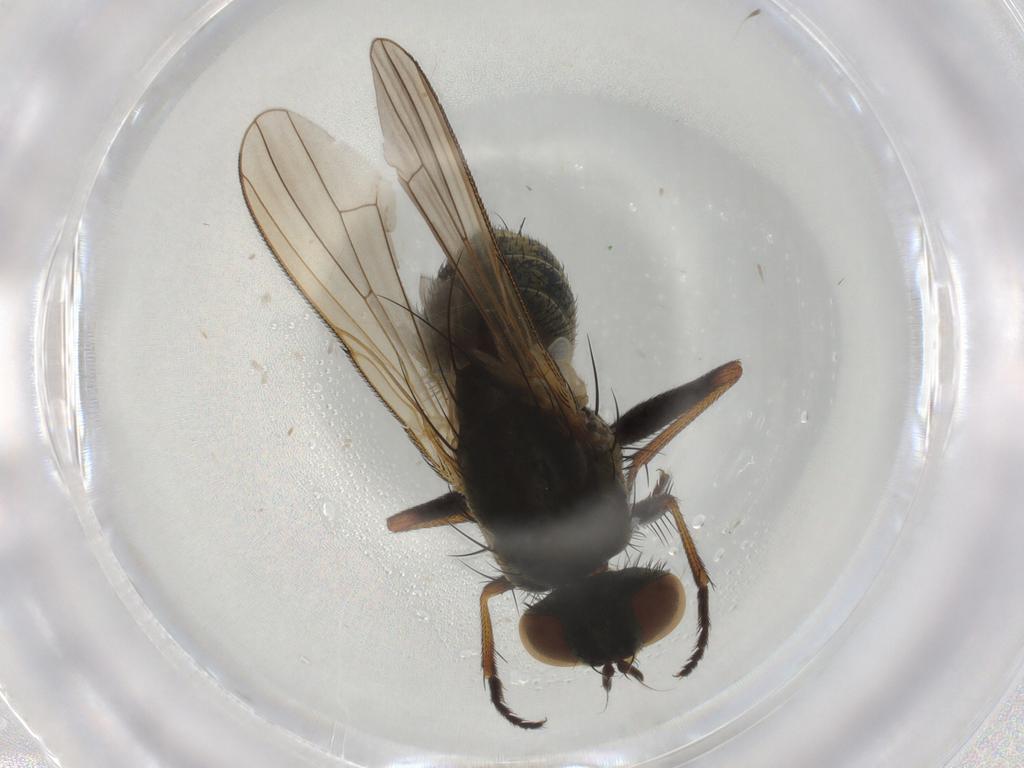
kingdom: Animalia
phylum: Arthropoda
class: Insecta
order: Diptera
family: Muscidae
